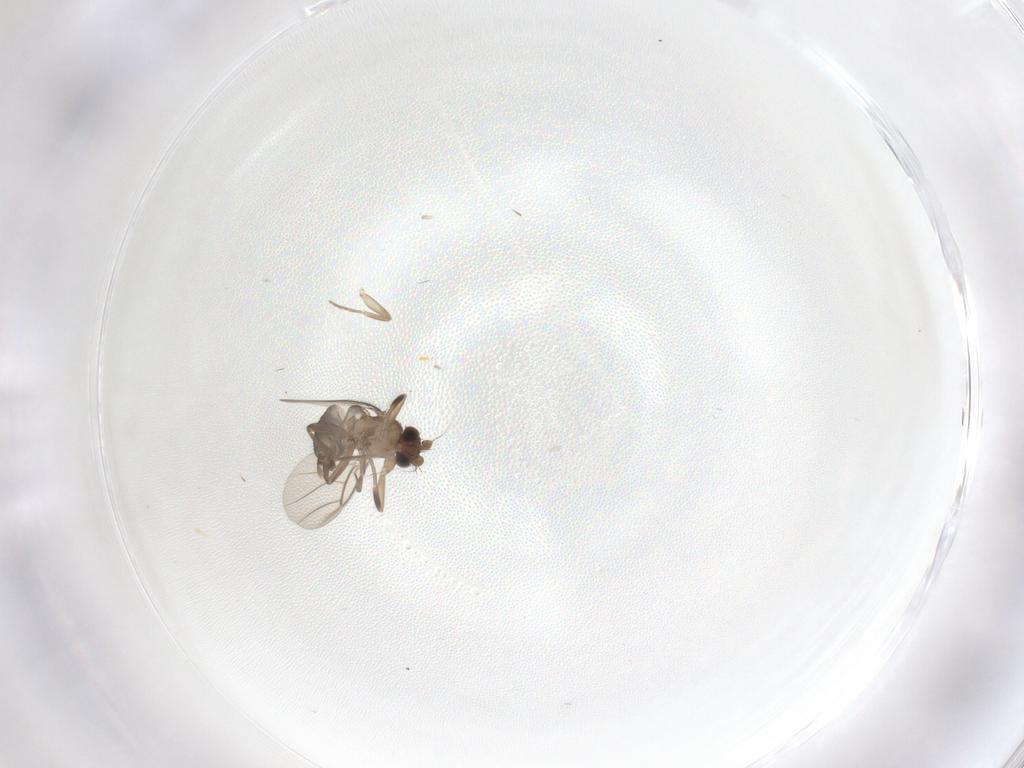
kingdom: Animalia
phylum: Arthropoda
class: Insecta
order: Diptera
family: Phoridae
